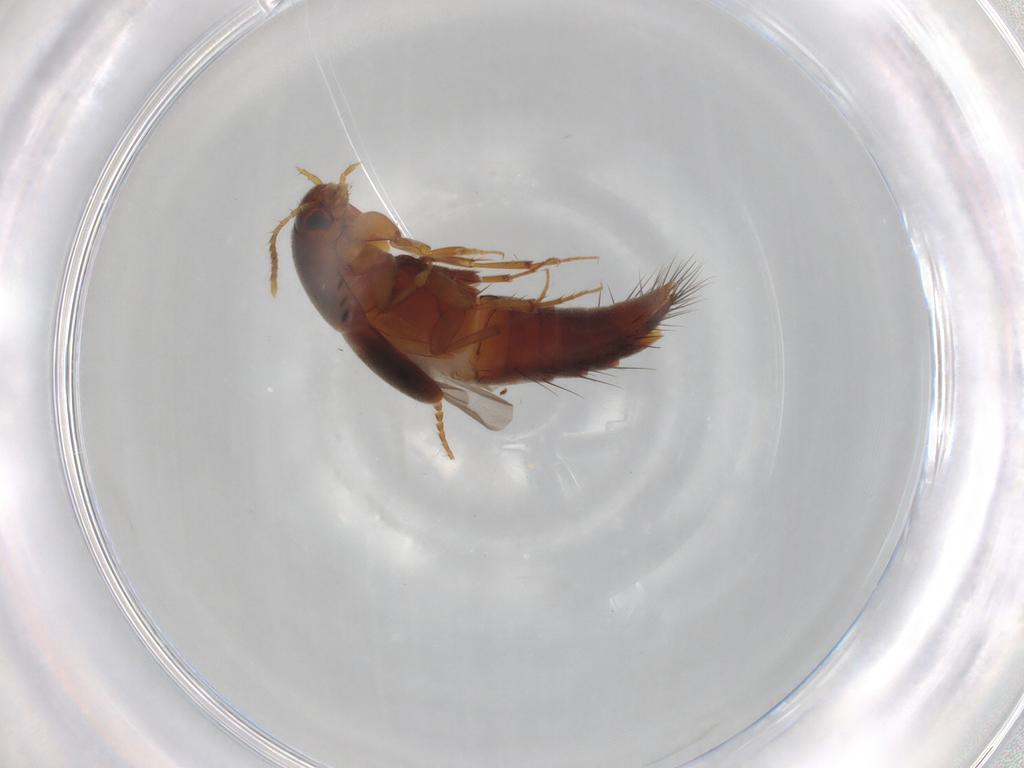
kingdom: Animalia
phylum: Arthropoda
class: Insecta
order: Coleoptera
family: Staphylinidae
